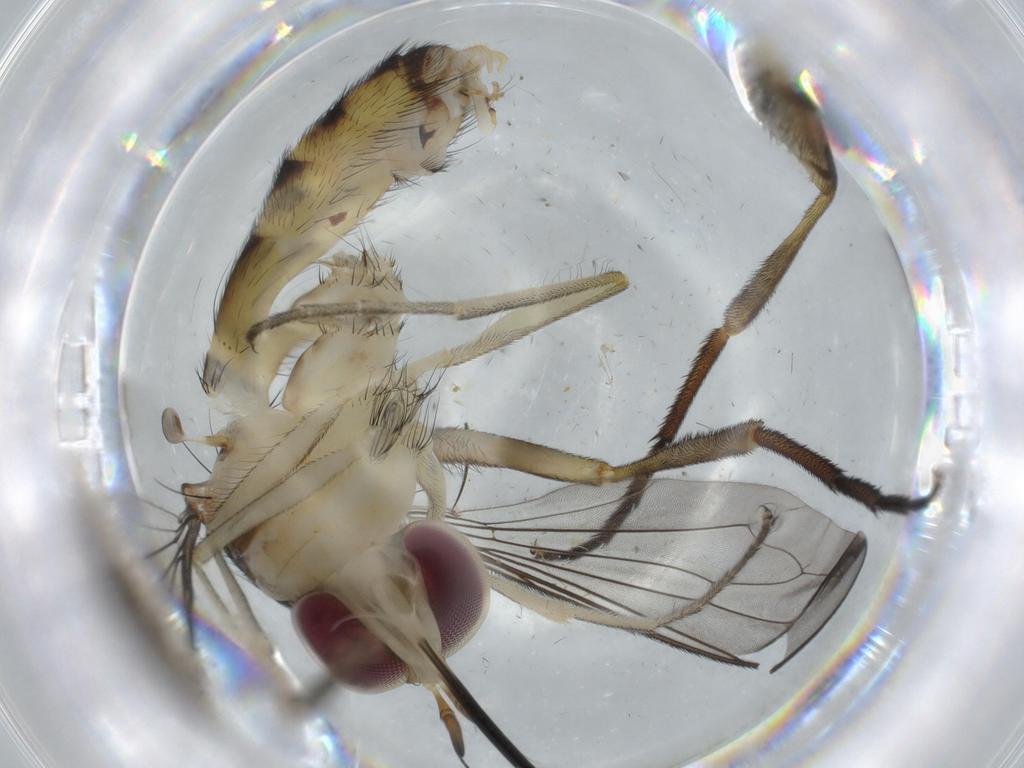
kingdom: Animalia
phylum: Arthropoda
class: Insecta
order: Diptera
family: Conopidae
